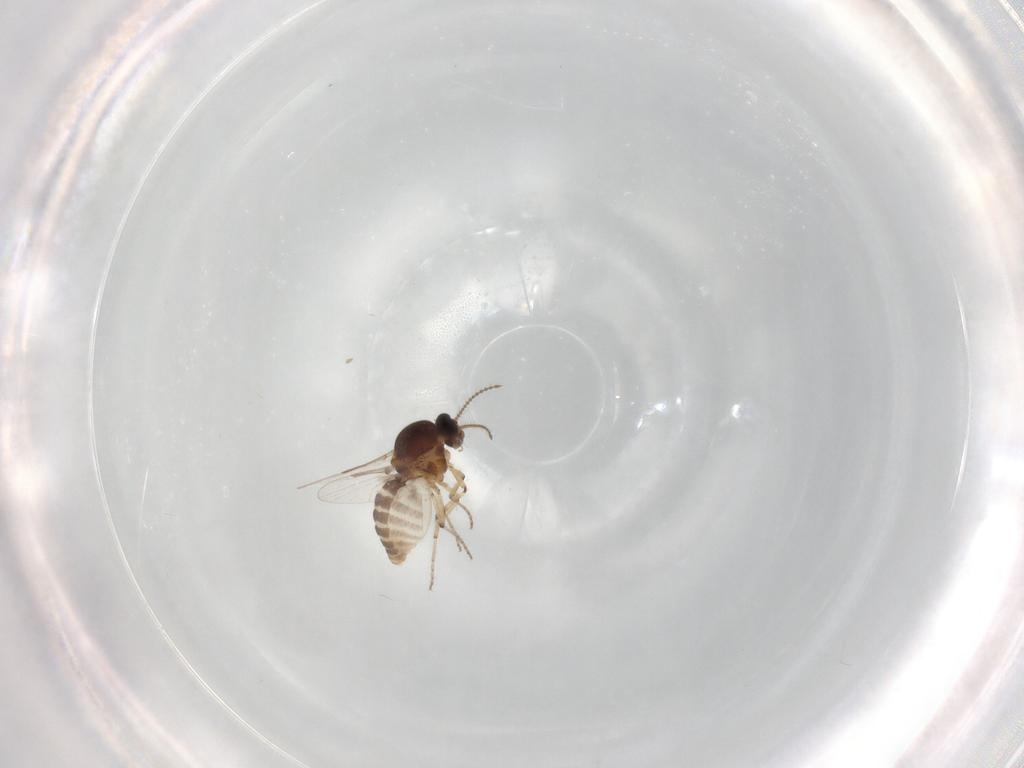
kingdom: Animalia
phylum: Arthropoda
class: Insecta
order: Diptera
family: Ceratopogonidae
